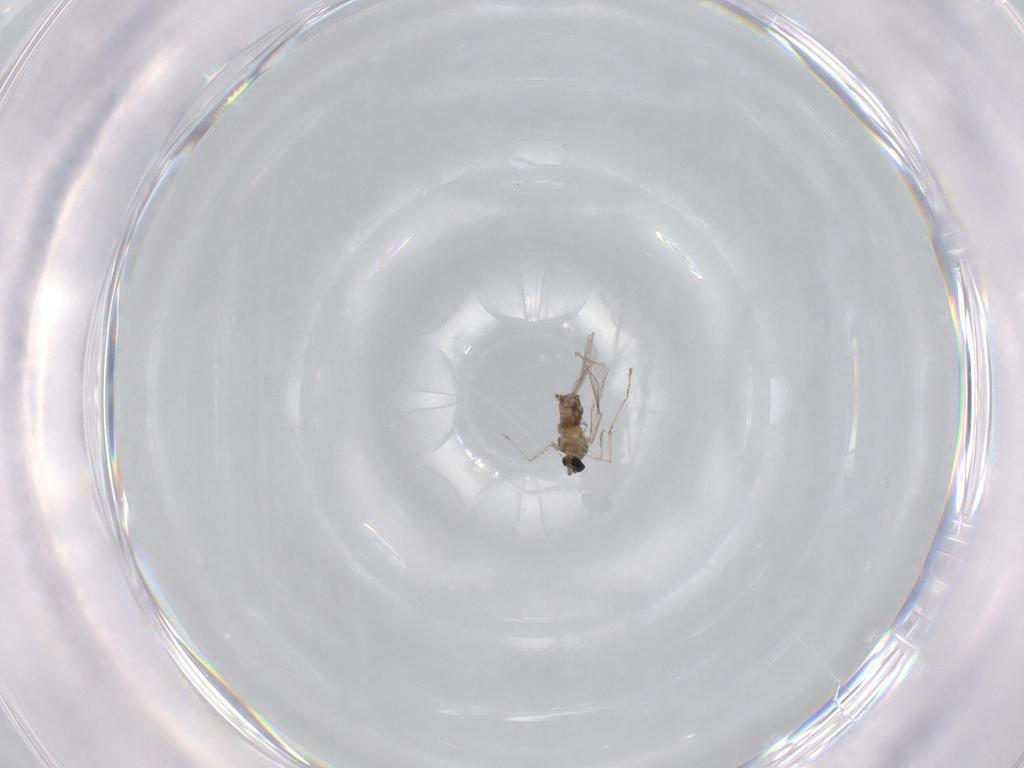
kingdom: Animalia
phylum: Arthropoda
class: Insecta
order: Diptera
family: Cecidomyiidae
